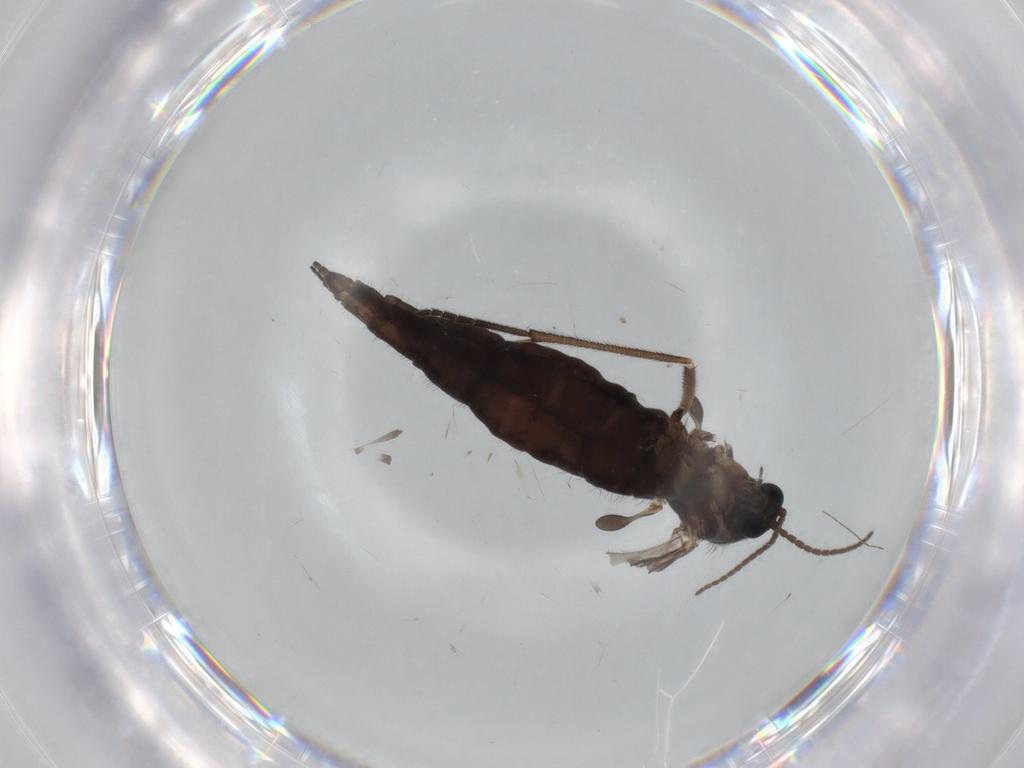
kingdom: Animalia
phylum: Arthropoda
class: Insecta
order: Diptera
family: Sciaridae
